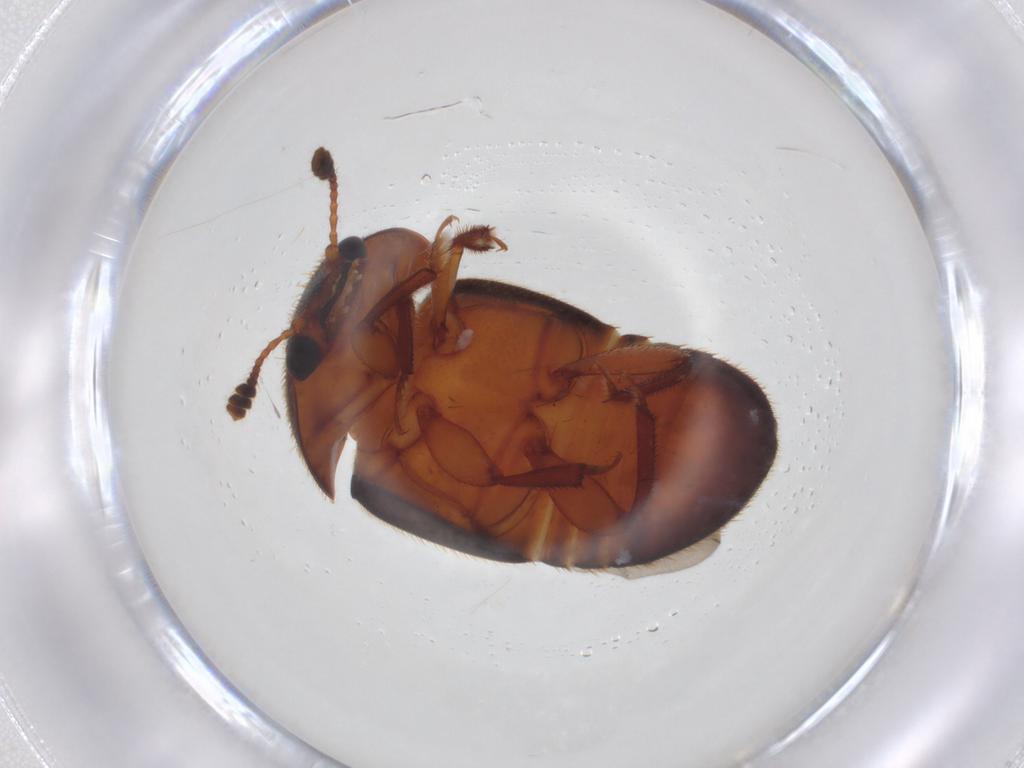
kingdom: Animalia
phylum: Arthropoda
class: Insecta
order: Coleoptera
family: Nitidulidae
